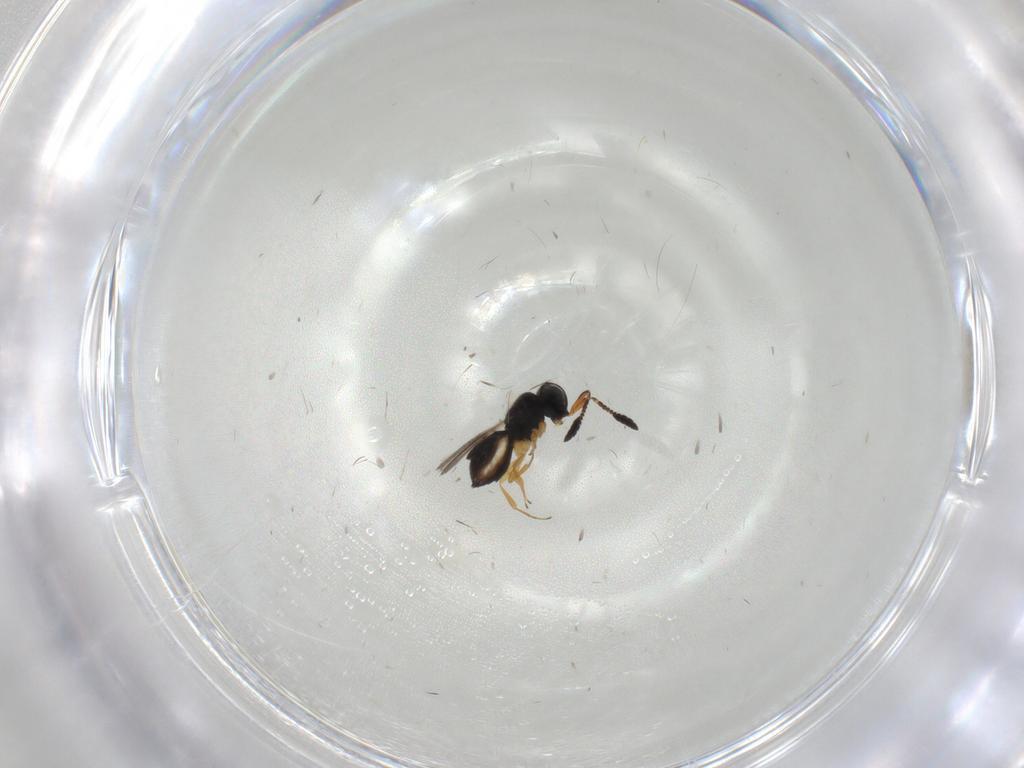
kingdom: Animalia
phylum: Arthropoda
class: Insecta
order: Hymenoptera
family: Scelionidae
